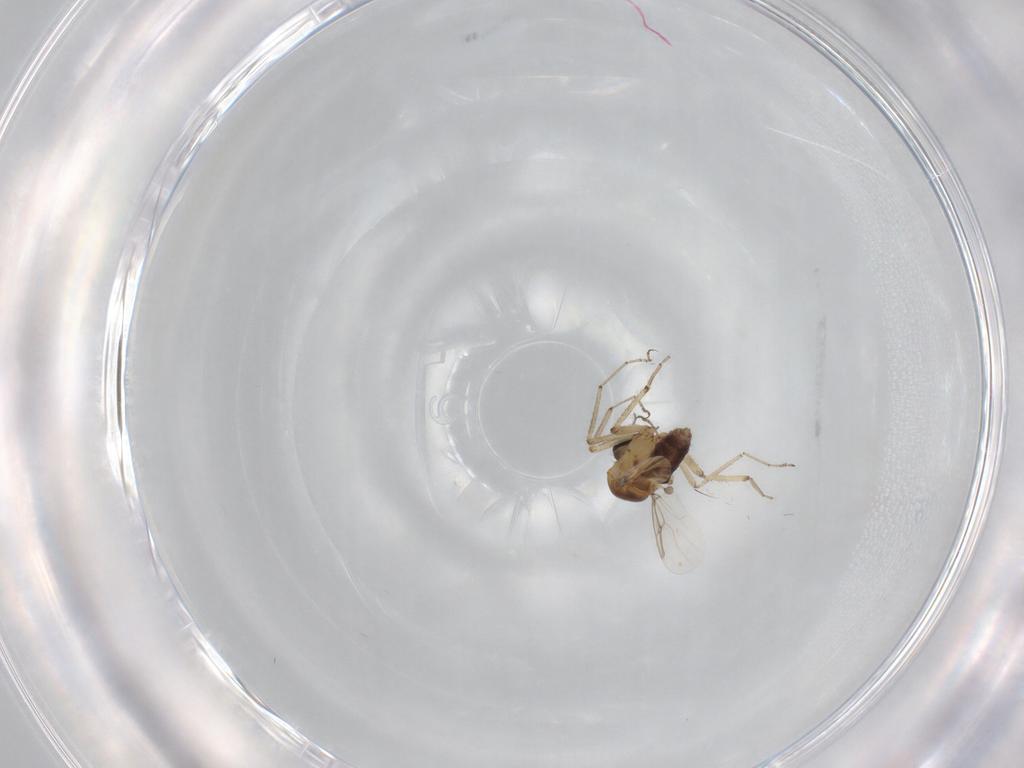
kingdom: Animalia
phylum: Arthropoda
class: Insecta
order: Diptera
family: Ceratopogonidae
